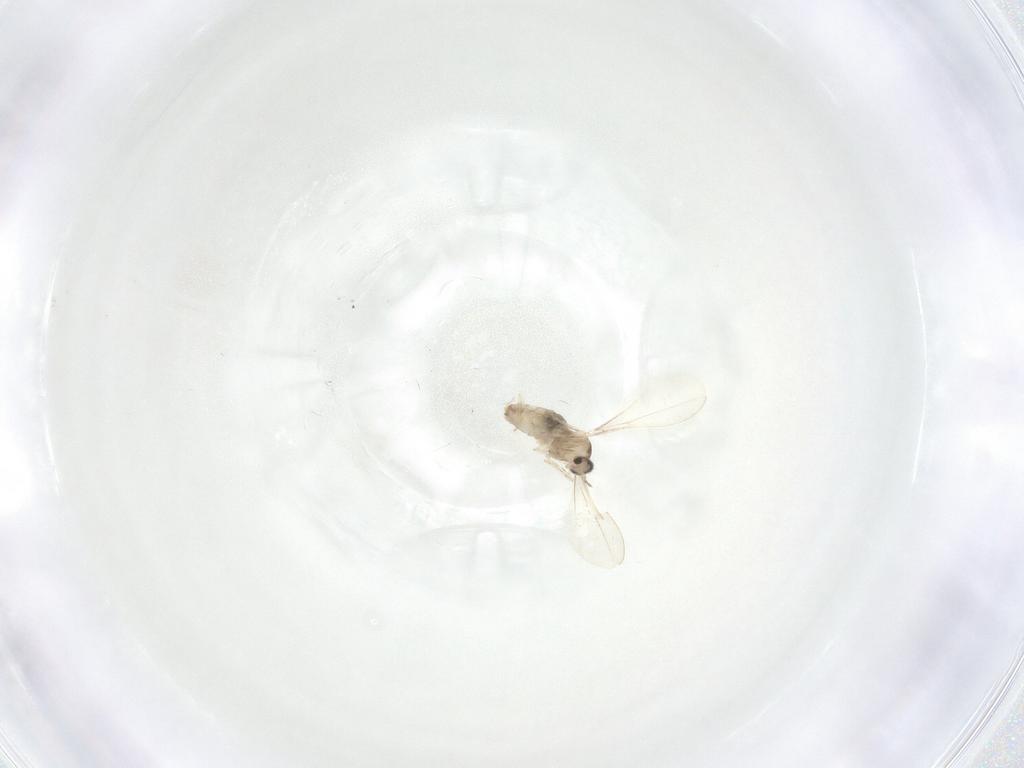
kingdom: Animalia
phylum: Arthropoda
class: Insecta
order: Diptera
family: Cecidomyiidae
